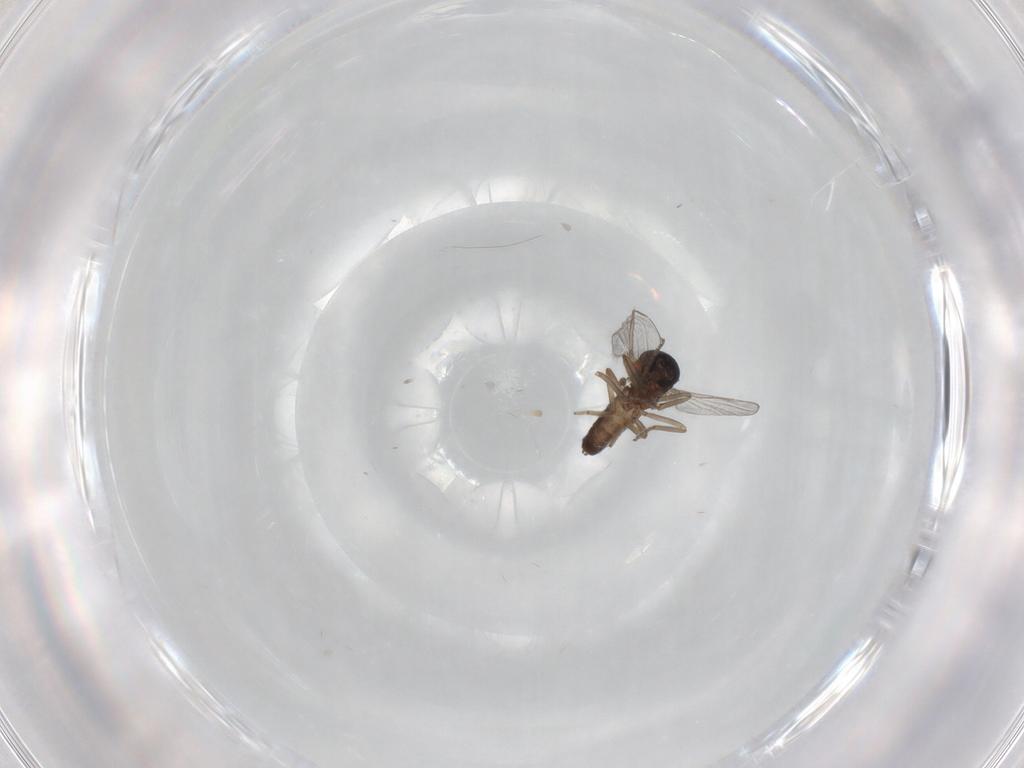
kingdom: Animalia
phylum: Arthropoda
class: Insecta
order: Diptera
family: Ceratopogonidae
